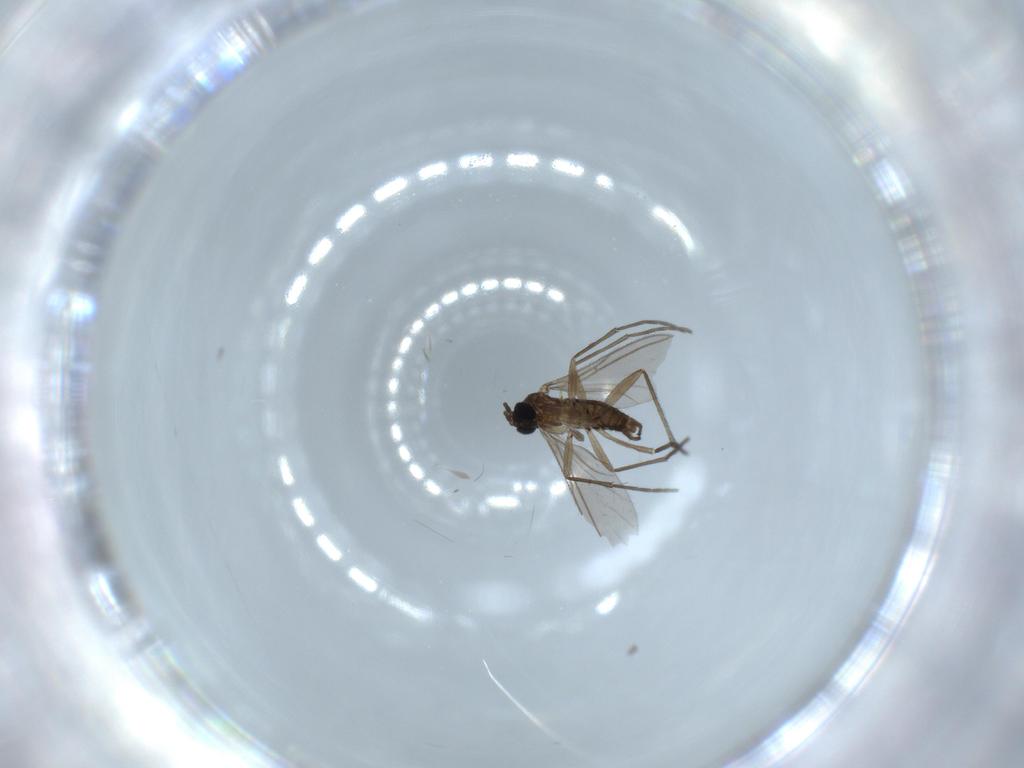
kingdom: Animalia
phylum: Arthropoda
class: Insecta
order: Diptera
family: Sciaridae
